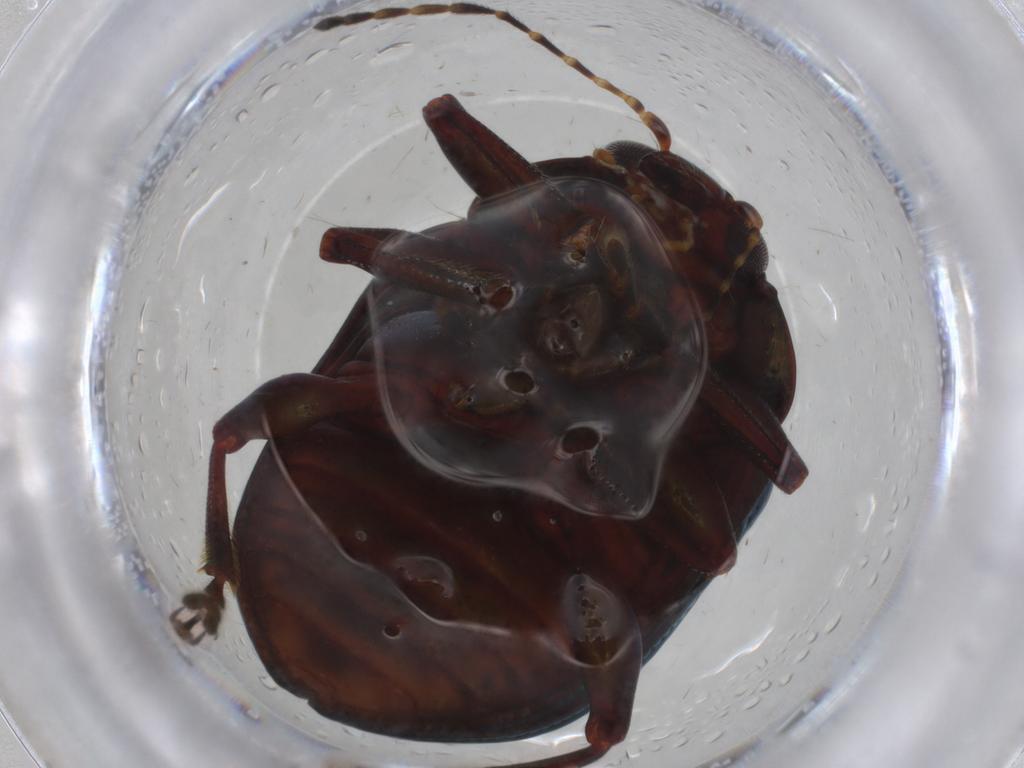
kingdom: Animalia
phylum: Arthropoda
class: Insecta
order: Coleoptera
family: Chrysomelidae
